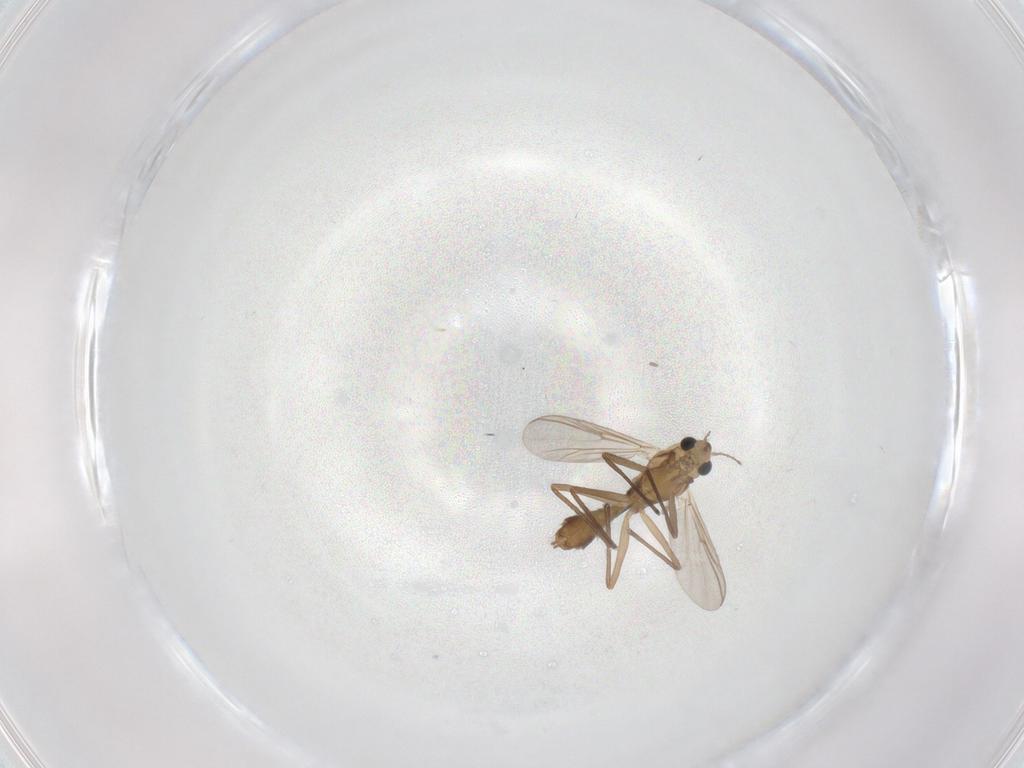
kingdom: Animalia
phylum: Arthropoda
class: Insecta
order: Diptera
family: Chironomidae
